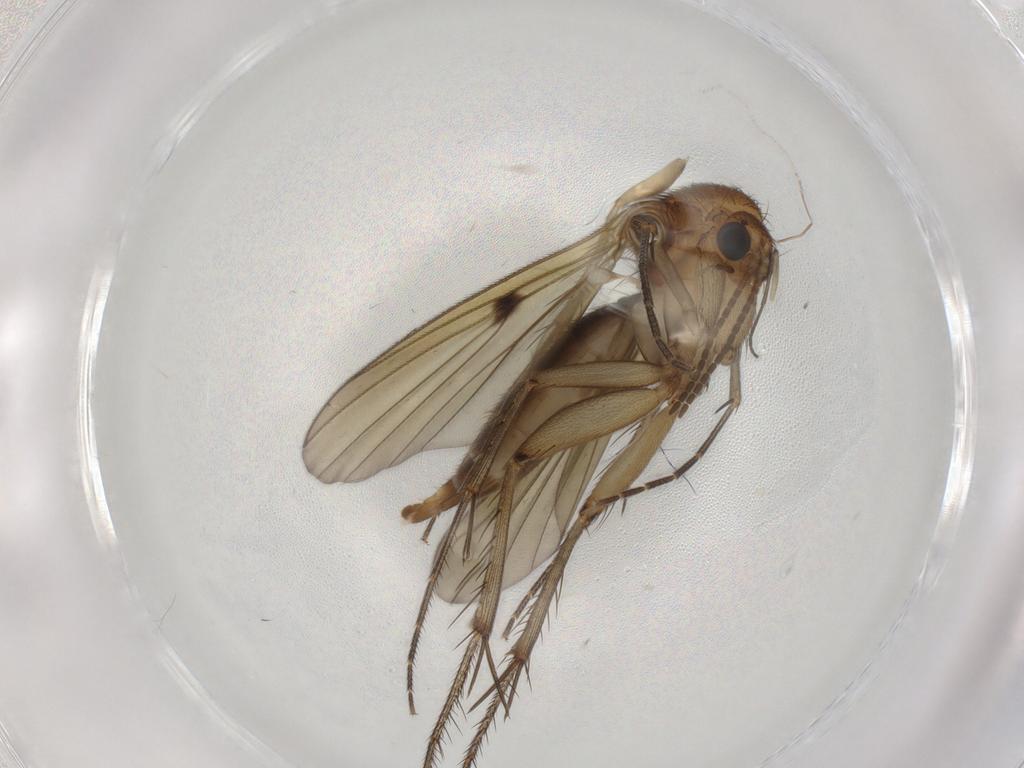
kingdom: Animalia
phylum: Arthropoda
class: Insecta
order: Diptera
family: Mycetophilidae
